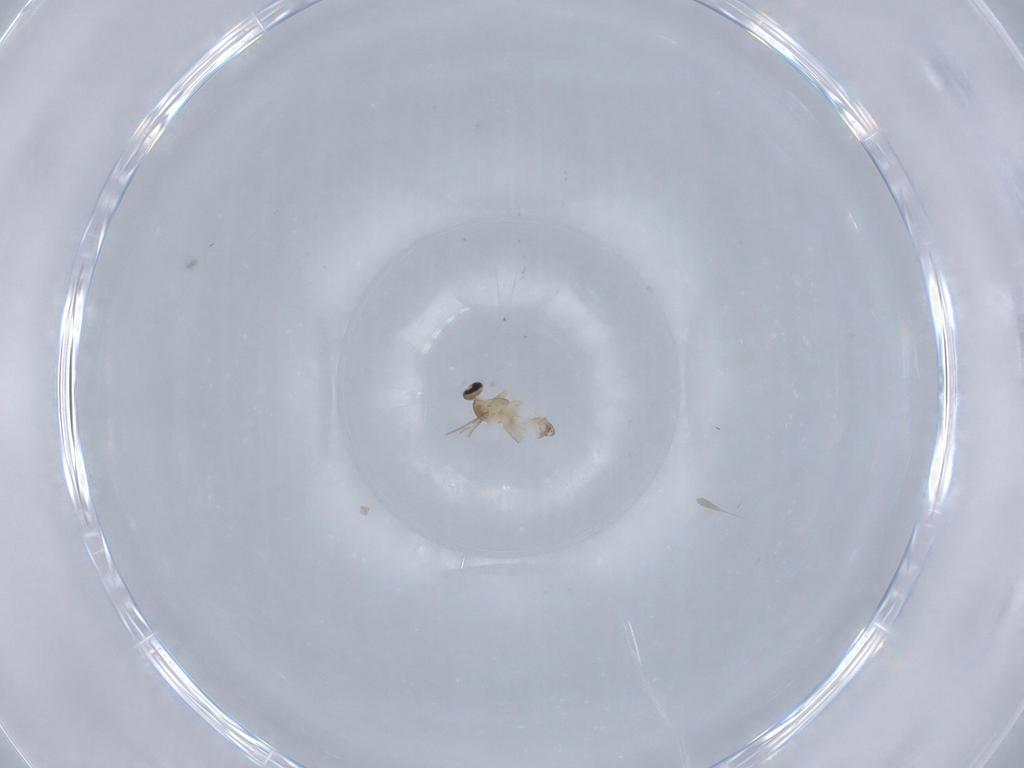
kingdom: Animalia
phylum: Arthropoda
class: Insecta
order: Diptera
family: Cecidomyiidae
